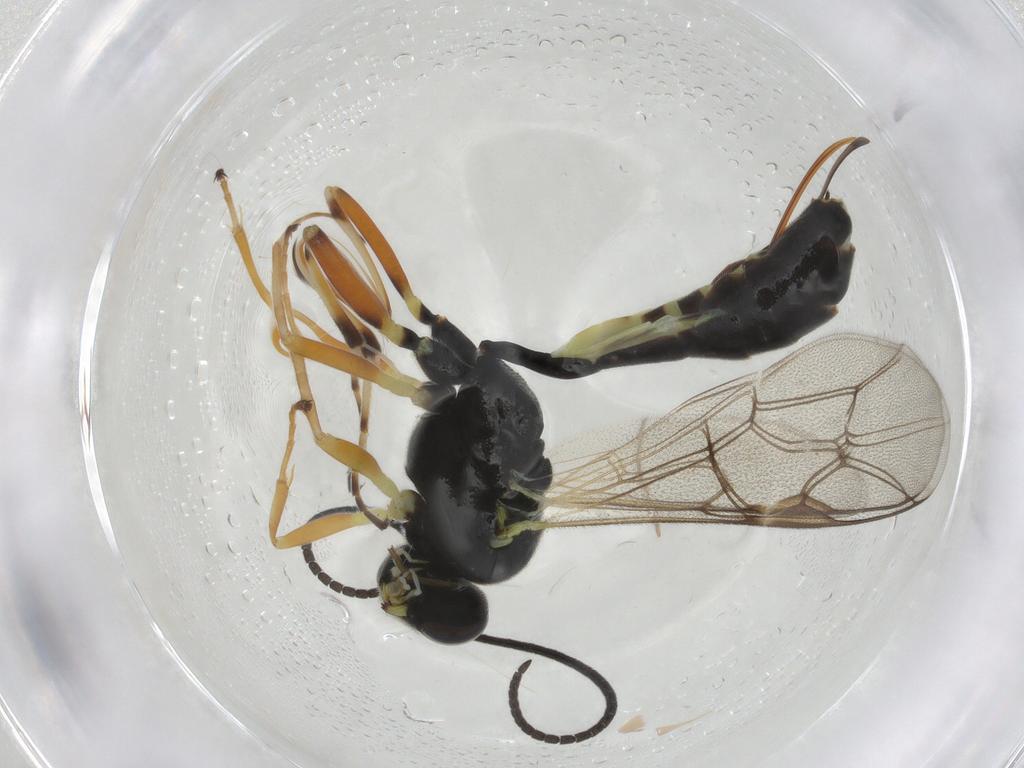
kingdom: Animalia
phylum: Arthropoda
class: Insecta
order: Hymenoptera
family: Ichneumonidae
